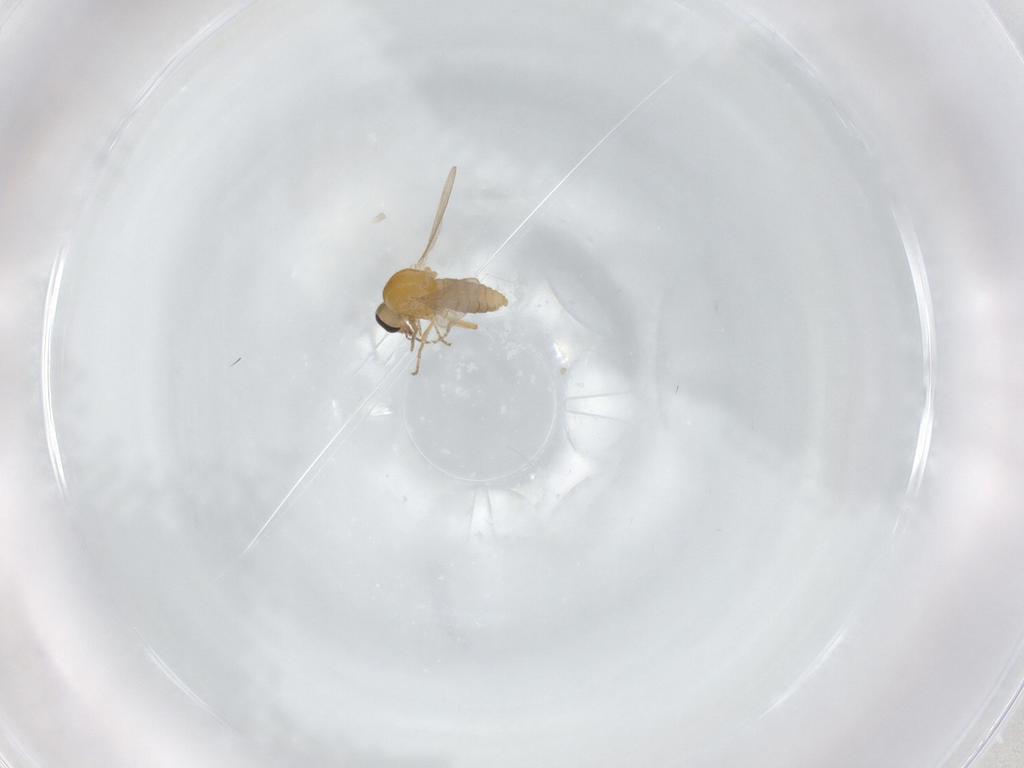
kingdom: Animalia
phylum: Arthropoda
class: Insecta
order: Diptera
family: Ceratopogonidae
